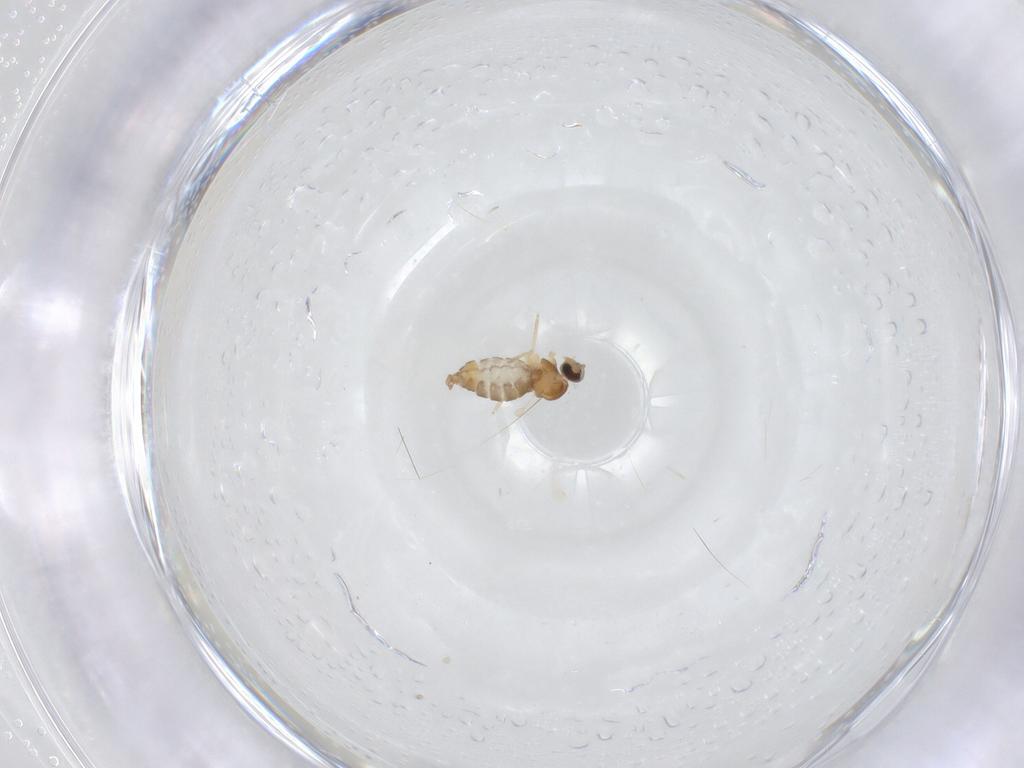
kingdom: Animalia
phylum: Arthropoda
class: Insecta
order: Diptera
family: Cecidomyiidae
